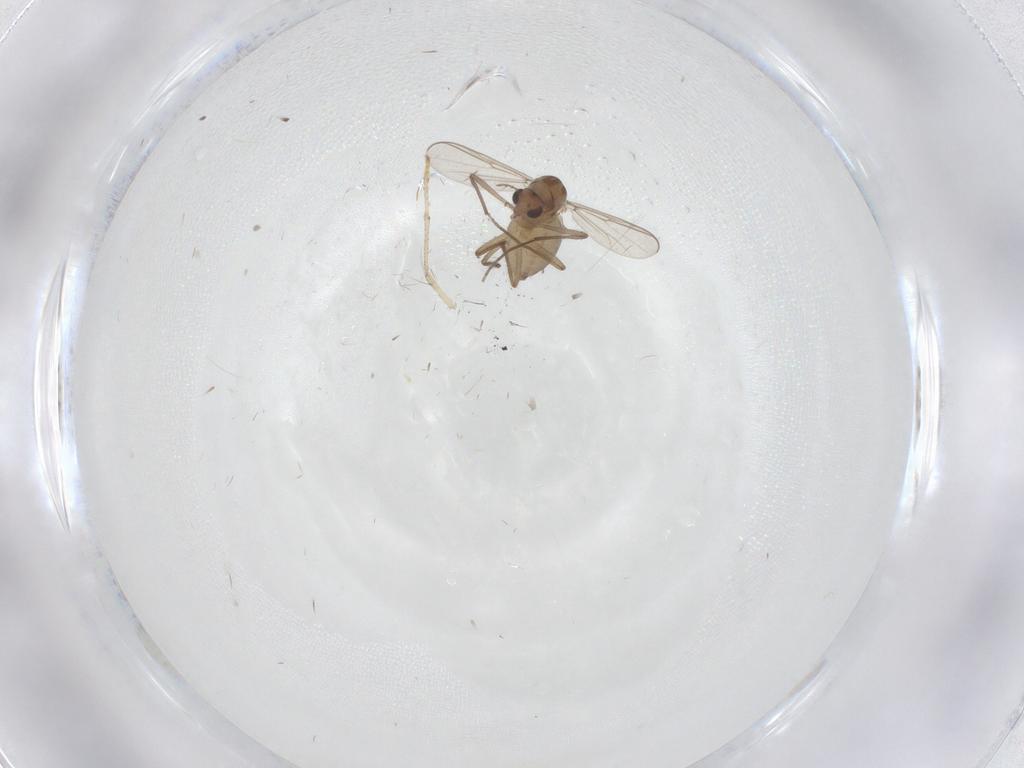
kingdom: Animalia
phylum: Arthropoda
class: Insecta
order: Diptera
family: Chironomidae
